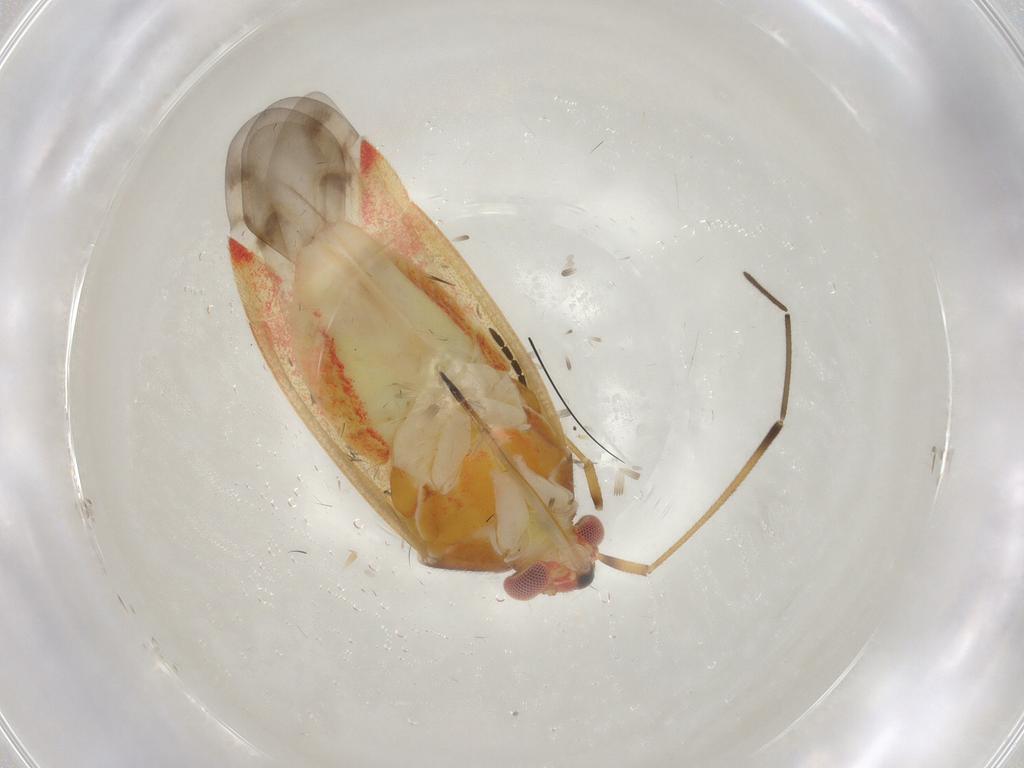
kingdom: Animalia
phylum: Arthropoda
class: Insecta
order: Hemiptera
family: Miridae
